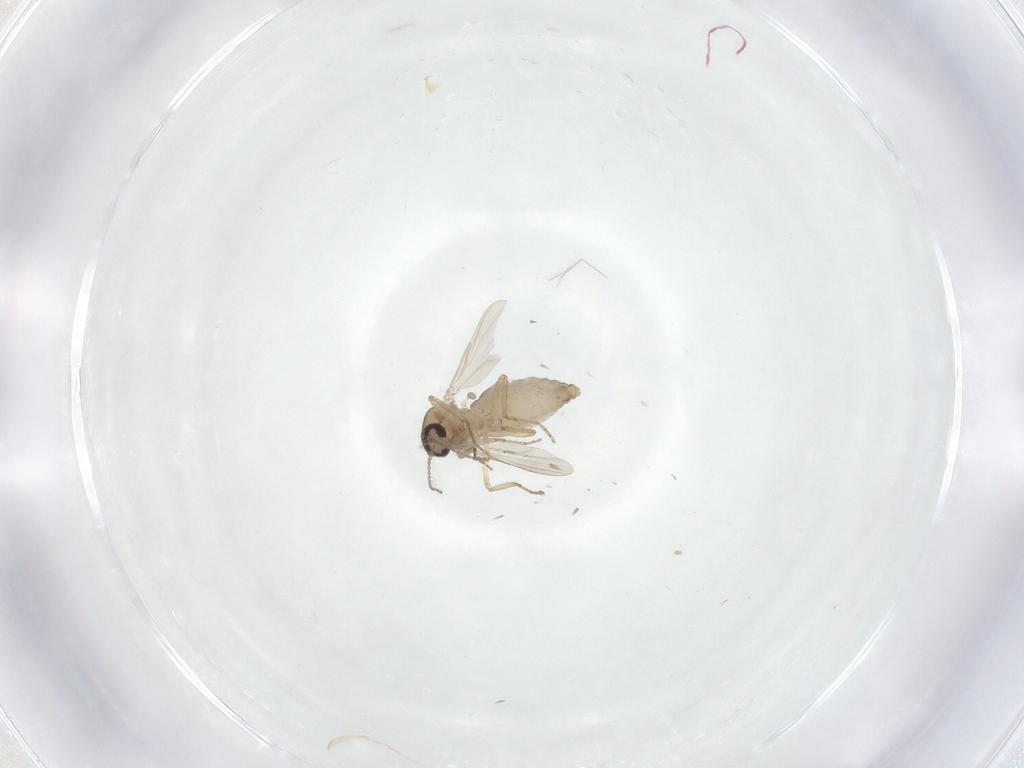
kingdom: Animalia
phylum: Arthropoda
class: Insecta
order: Diptera
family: Ceratopogonidae
